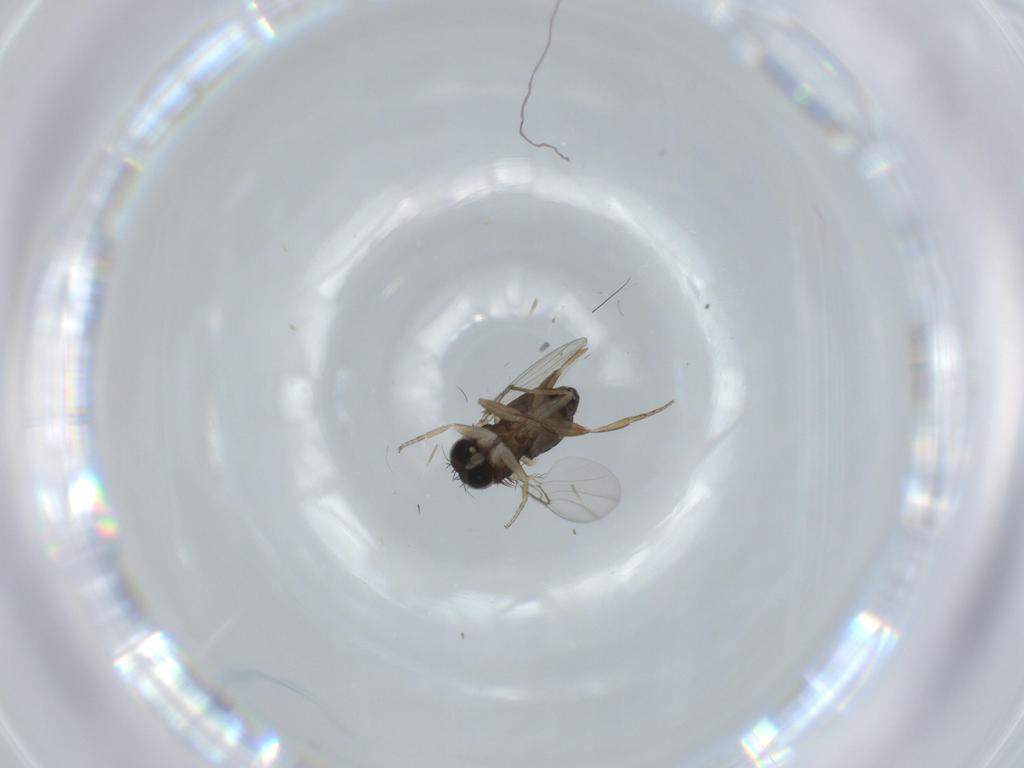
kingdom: Animalia
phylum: Arthropoda
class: Insecta
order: Diptera
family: Phoridae
